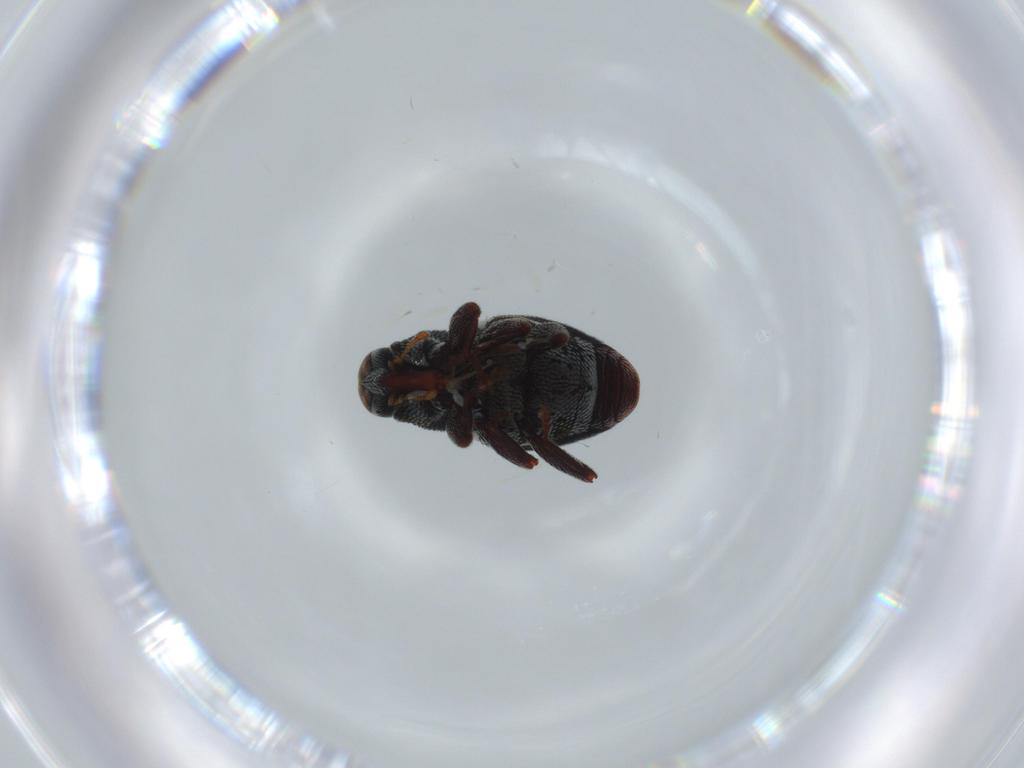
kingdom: Animalia
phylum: Arthropoda
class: Insecta
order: Coleoptera
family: Curculionidae
